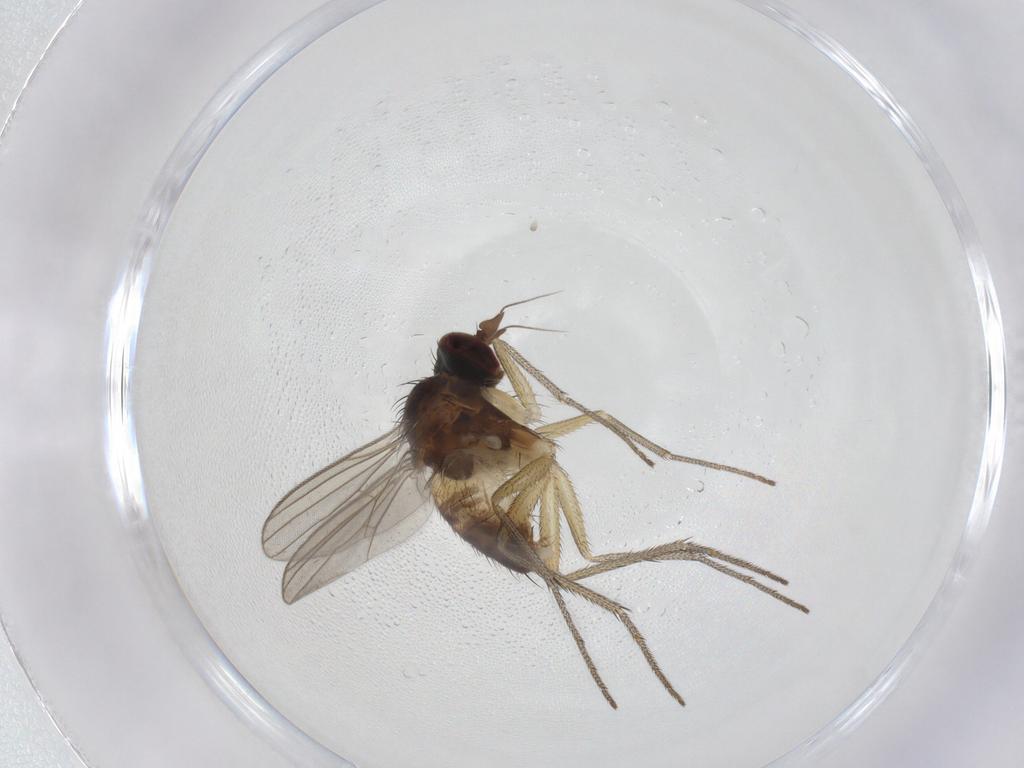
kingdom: Animalia
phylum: Arthropoda
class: Insecta
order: Diptera
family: Dolichopodidae
